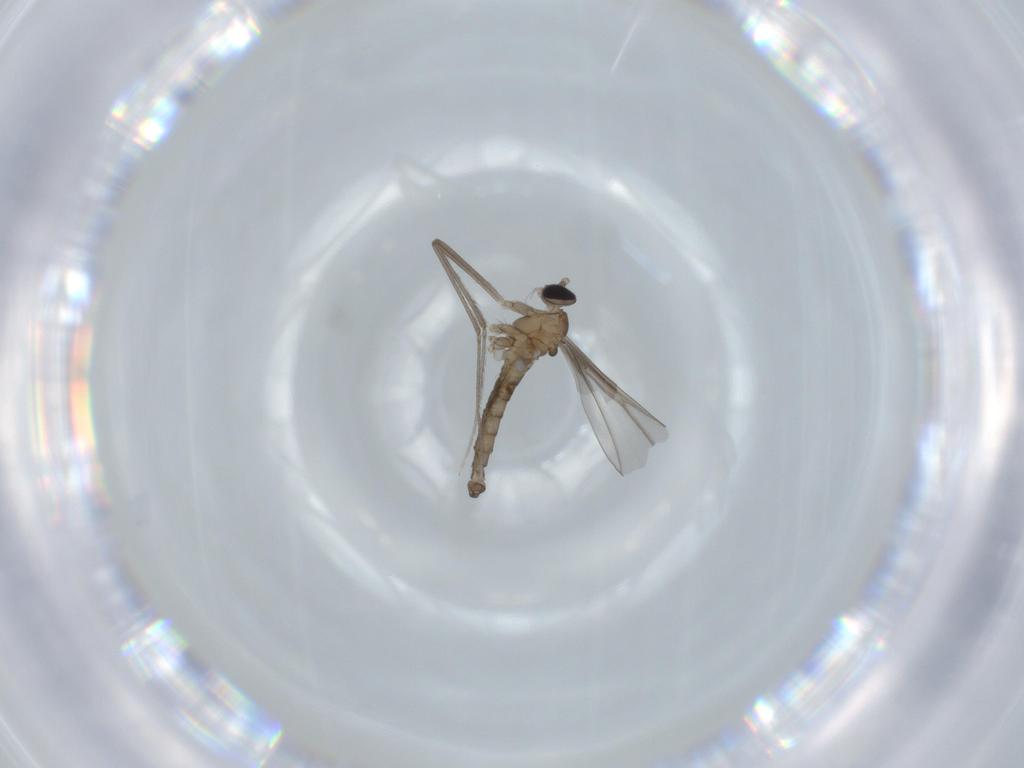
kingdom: Animalia
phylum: Arthropoda
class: Insecta
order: Diptera
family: Cecidomyiidae
